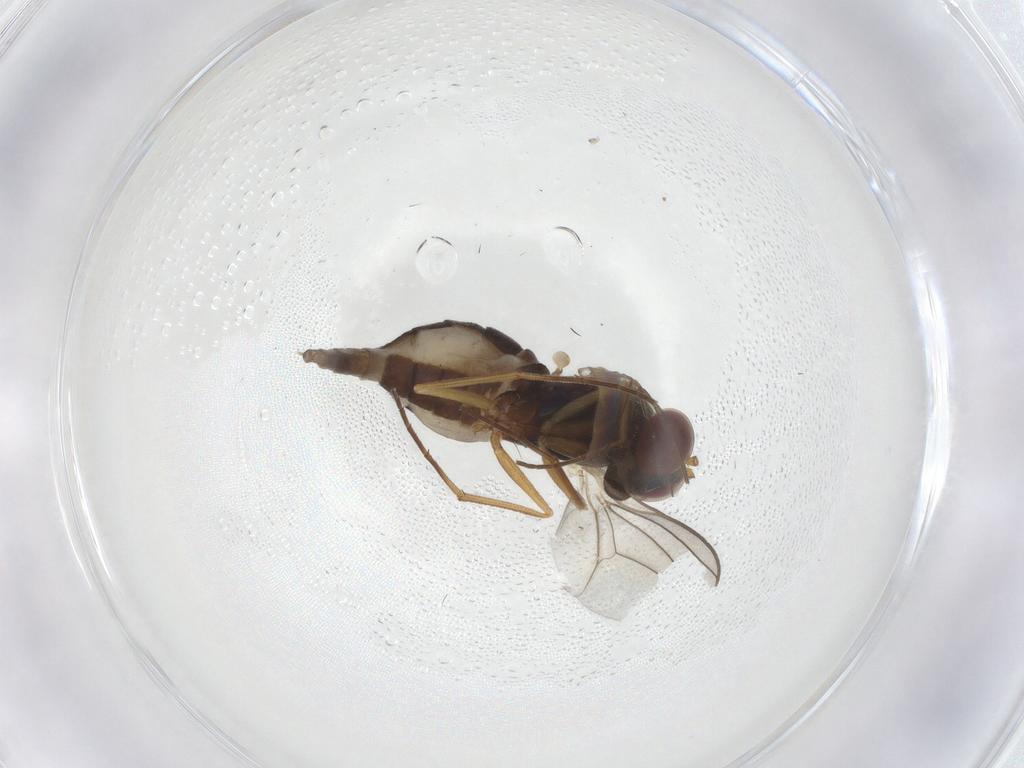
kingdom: Animalia
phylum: Arthropoda
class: Insecta
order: Diptera
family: Dolichopodidae
